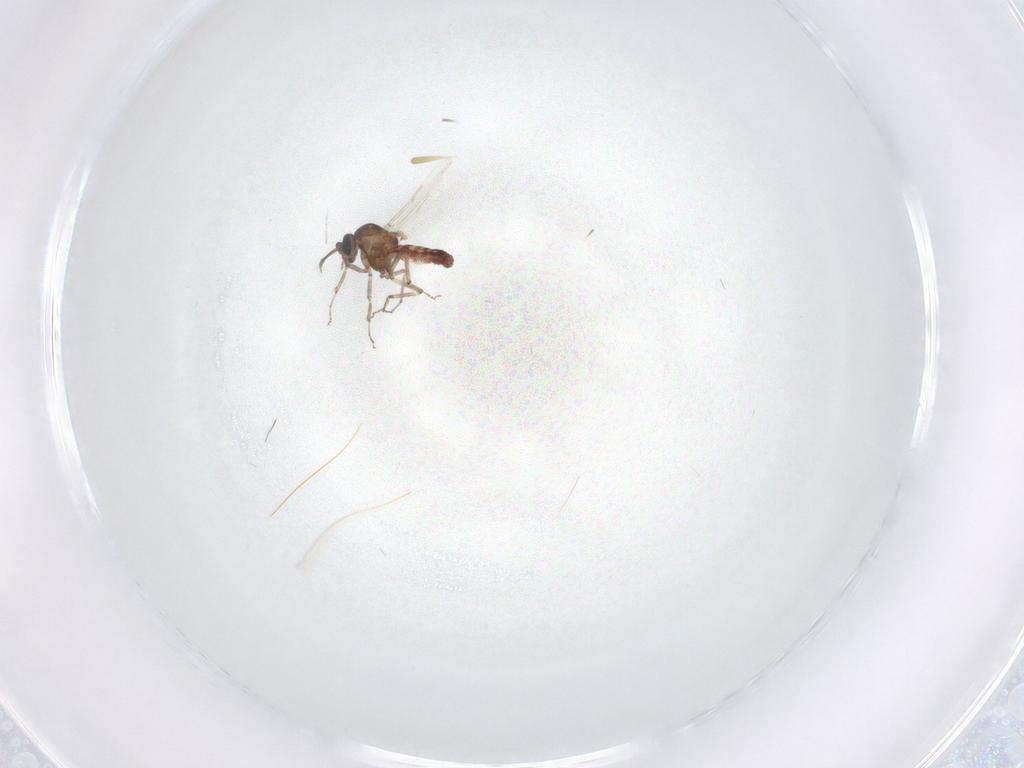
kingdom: Animalia
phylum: Arthropoda
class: Insecta
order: Diptera
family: Ceratopogonidae
